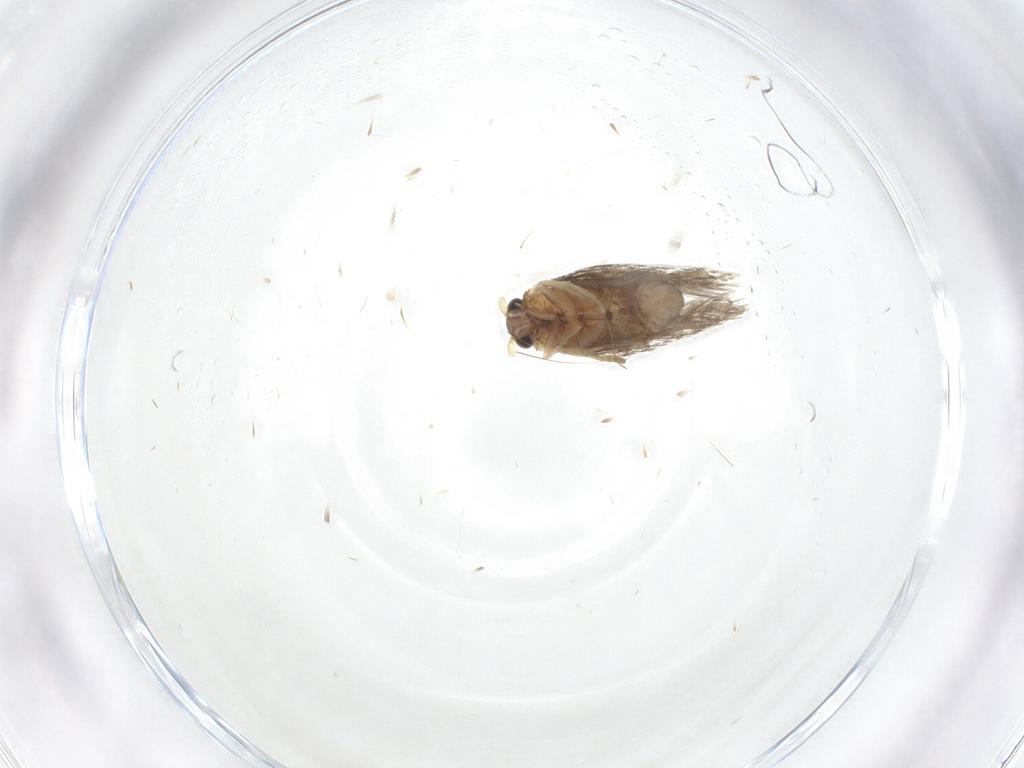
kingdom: Animalia
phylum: Arthropoda
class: Insecta
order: Lepidoptera
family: Nepticulidae
